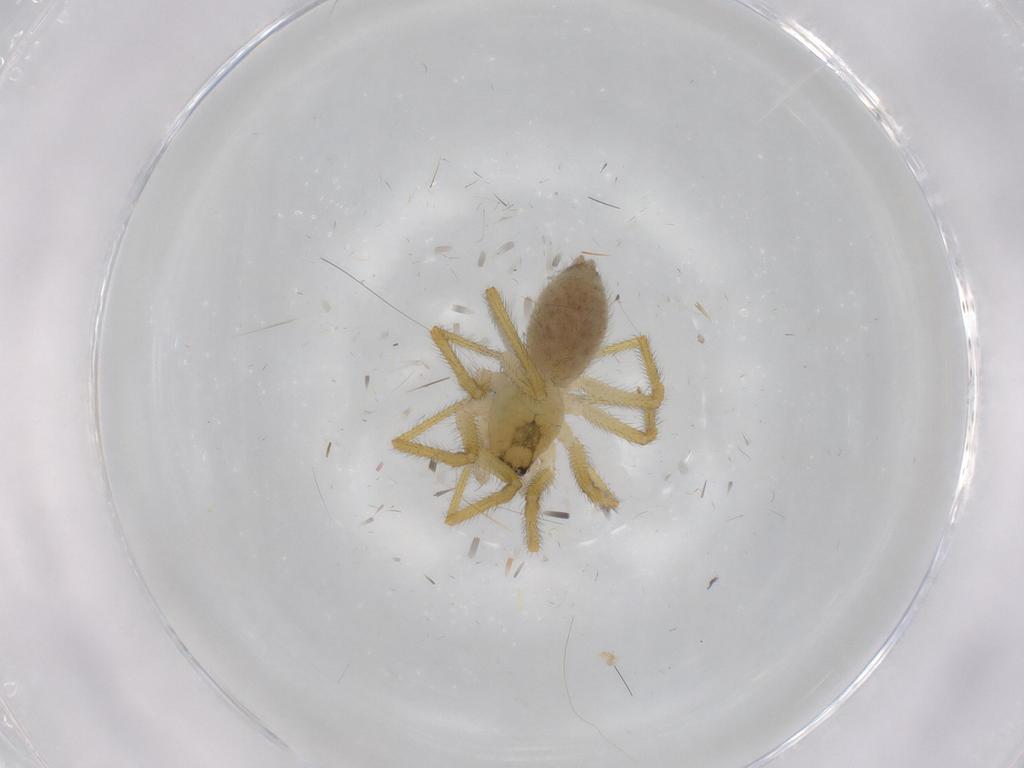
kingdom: Animalia
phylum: Arthropoda
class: Arachnida
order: Araneae
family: Linyphiidae
